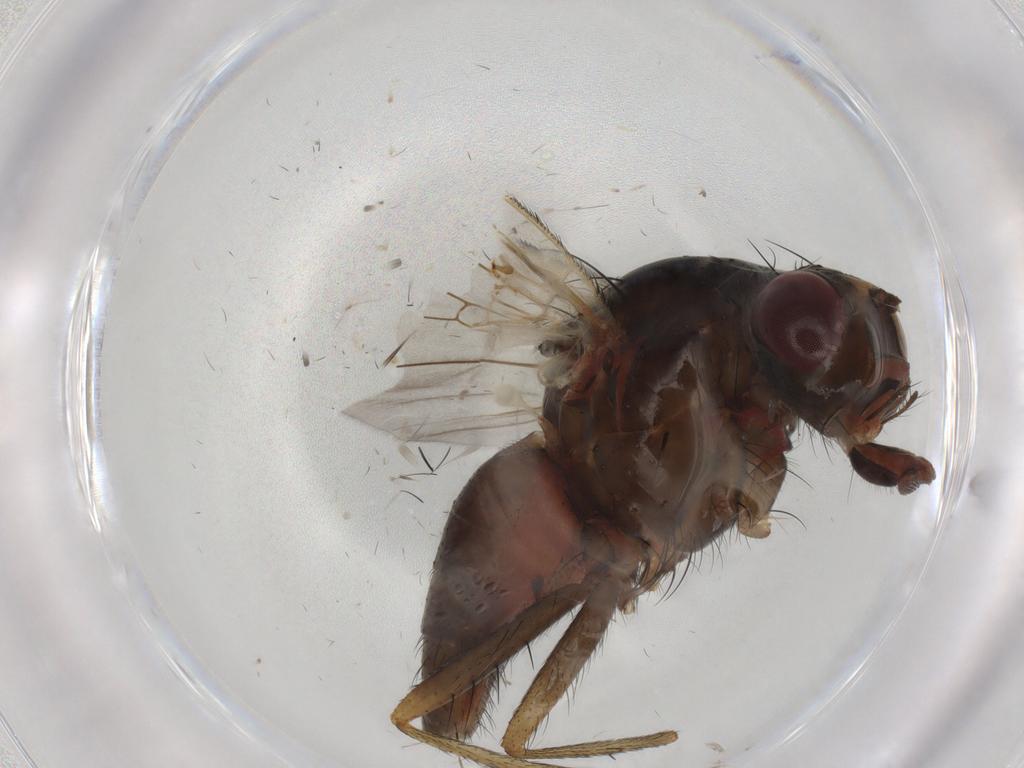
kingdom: Animalia
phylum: Arthropoda
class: Insecta
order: Diptera
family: Anthomyiidae
